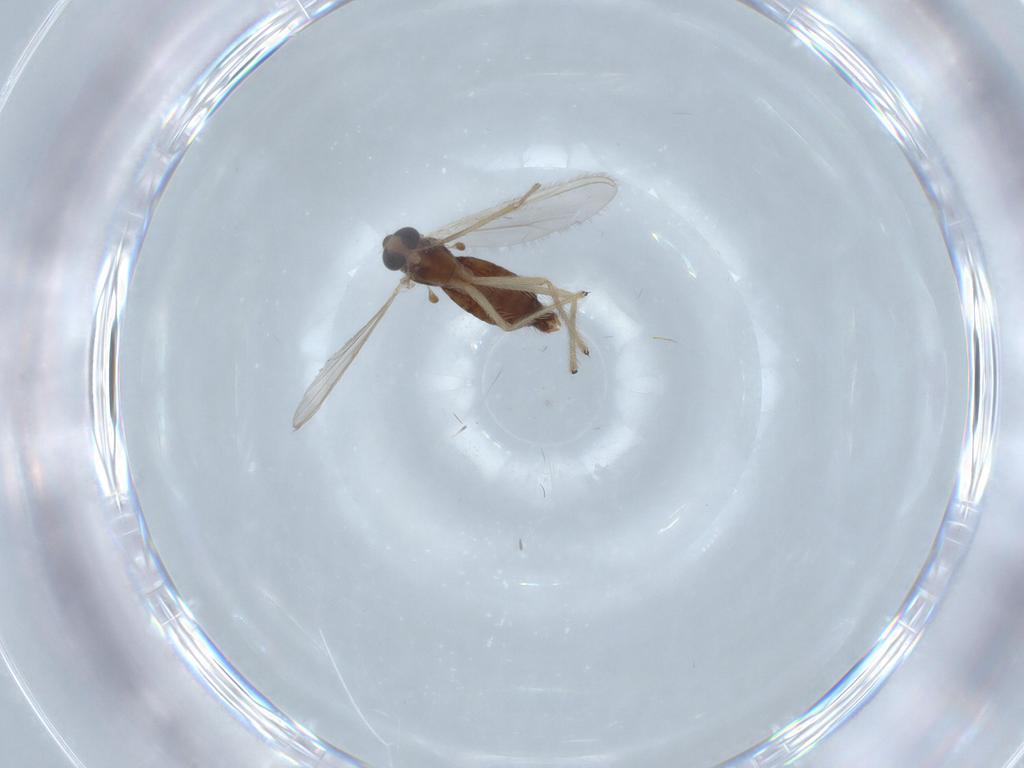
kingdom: Animalia
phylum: Arthropoda
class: Insecta
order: Diptera
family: Chironomidae
